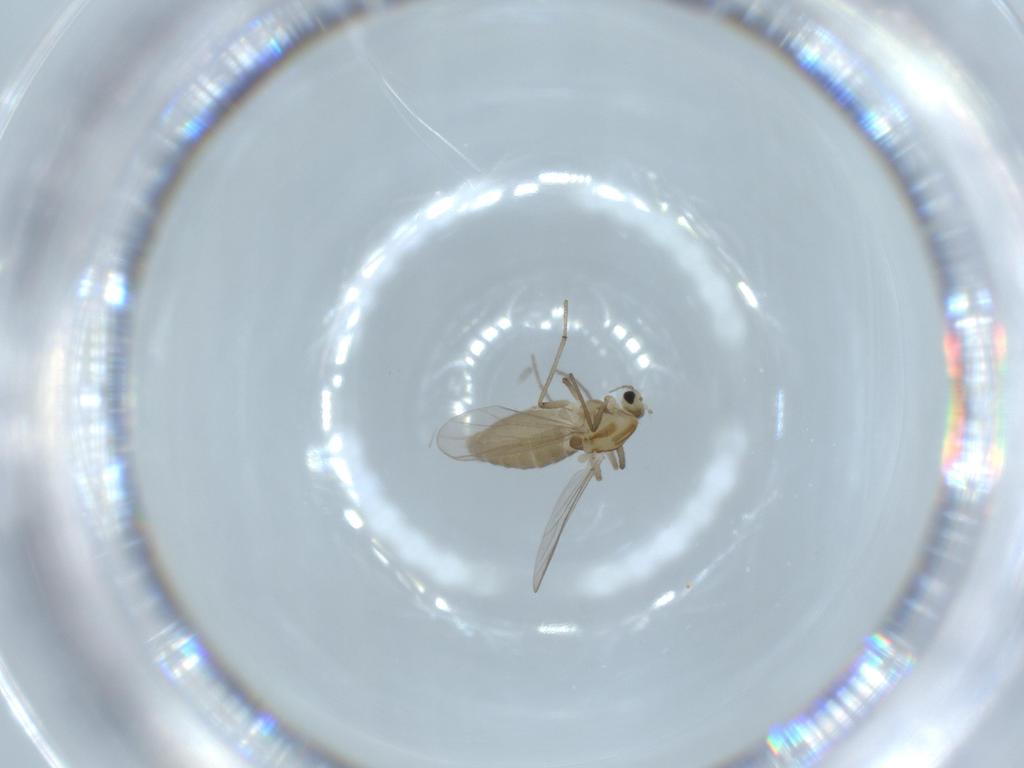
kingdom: Animalia
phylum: Arthropoda
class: Insecta
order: Diptera
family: Chironomidae
